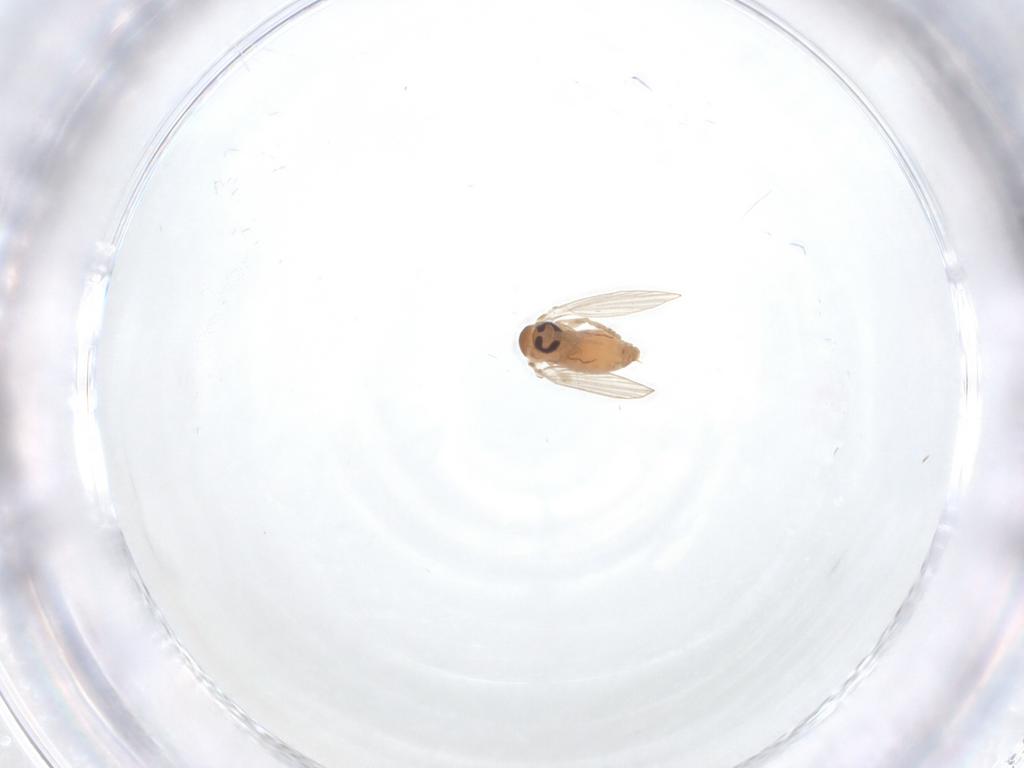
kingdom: Animalia
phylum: Arthropoda
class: Insecta
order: Diptera
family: Psychodidae
